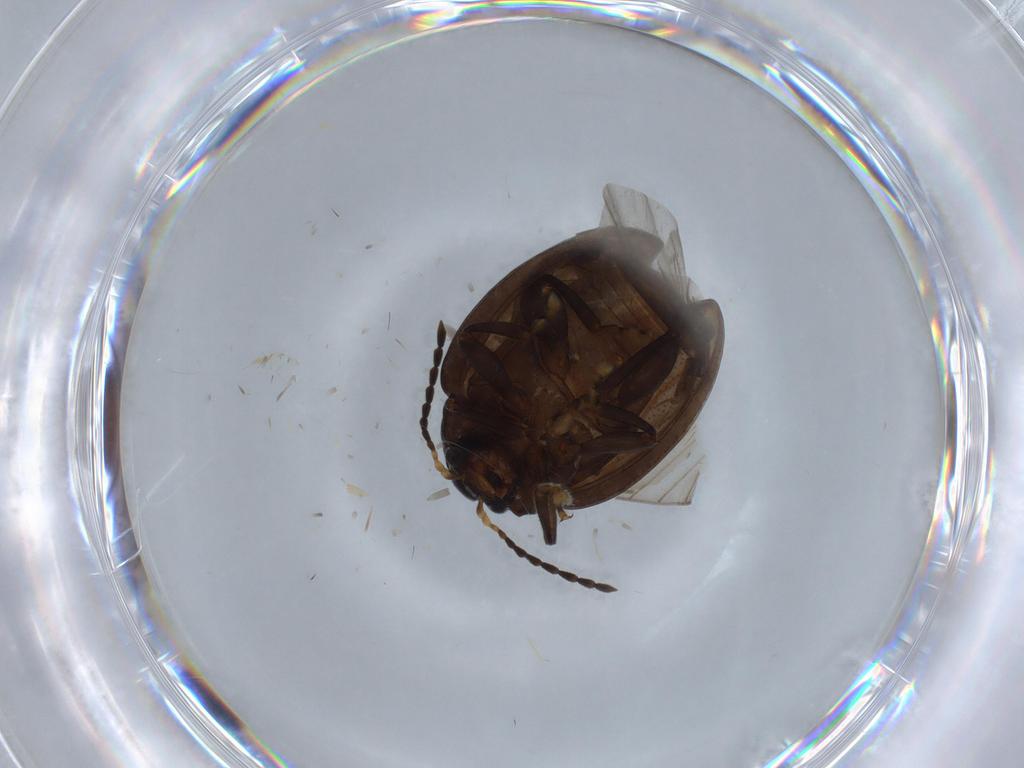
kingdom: Animalia
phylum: Arthropoda
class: Insecta
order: Coleoptera
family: Chrysomelidae
